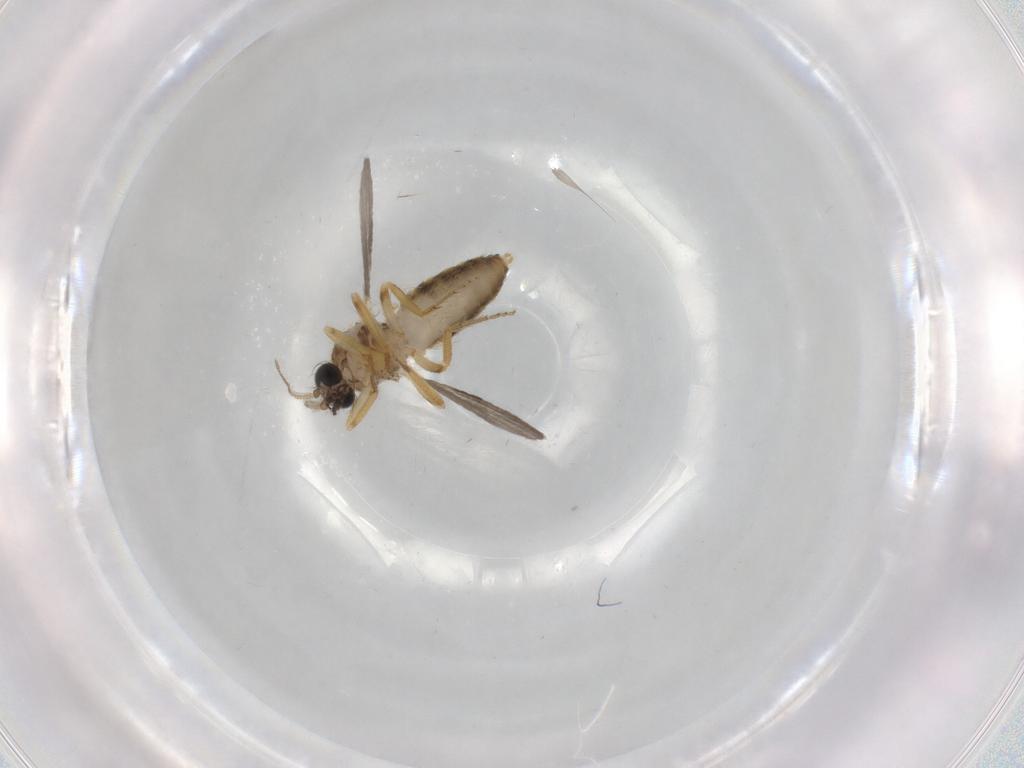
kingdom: Animalia
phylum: Arthropoda
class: Insecta
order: Diptera
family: Ceratopogonidae
